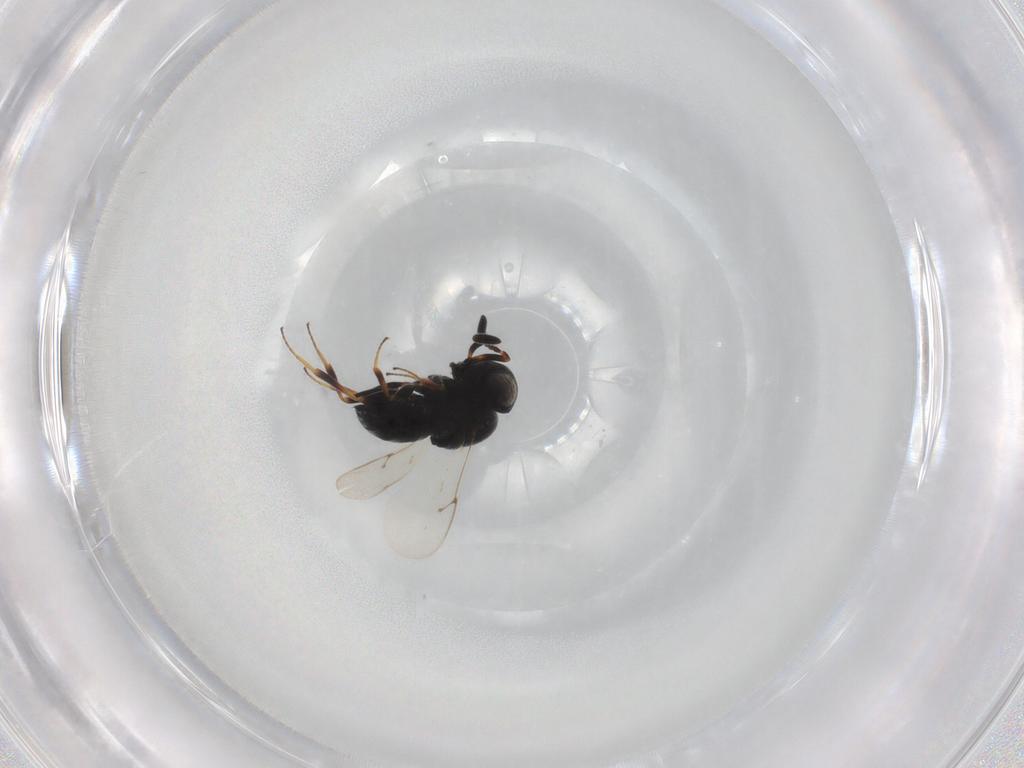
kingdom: Animalia
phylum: Arthropoda
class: Insecta
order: Hymenoptera
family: Scelionidae
